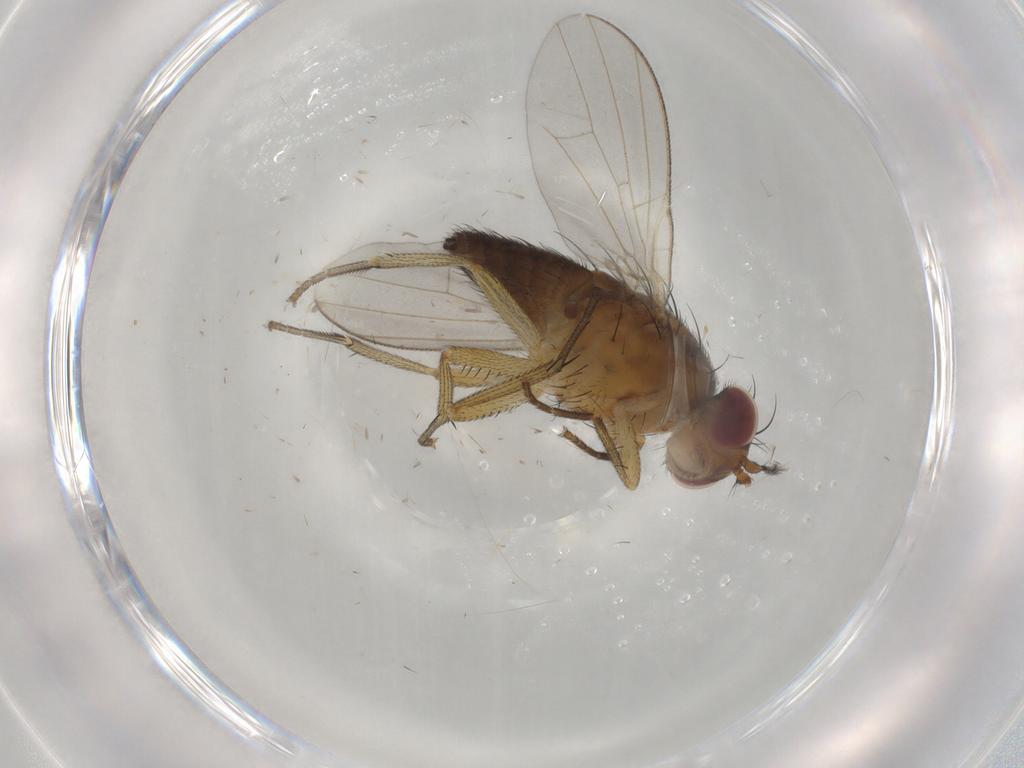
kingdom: Animalia
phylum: Arthropoda
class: Insecta
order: Diptera
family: Lauxaniidae
